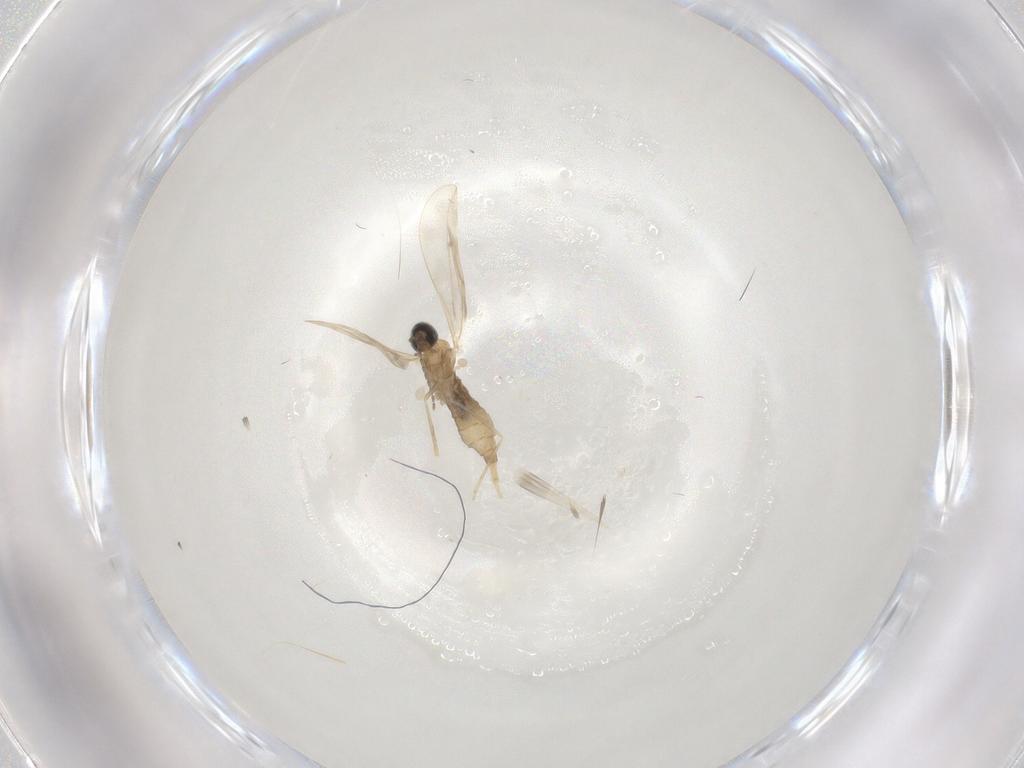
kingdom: Animalia
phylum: Arthropoda
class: Insecta
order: Diptera
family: Cecidomyiidae
